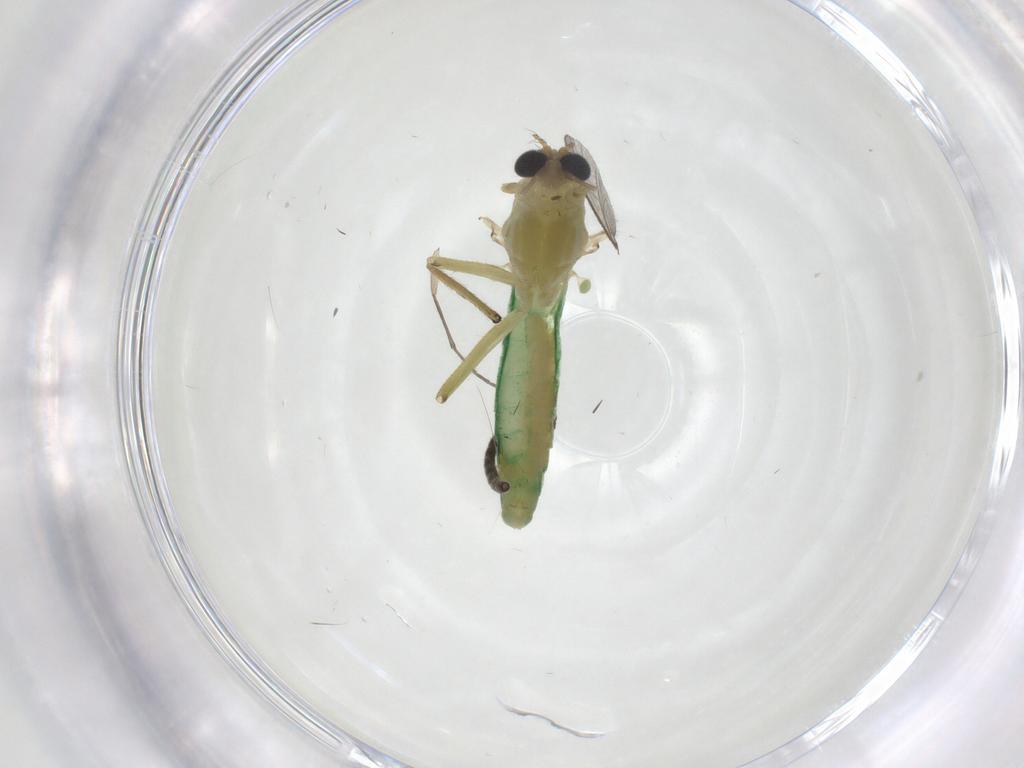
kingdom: Animalia
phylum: Arthropoda
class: Insecta
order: Diptera
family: Chironomidae
